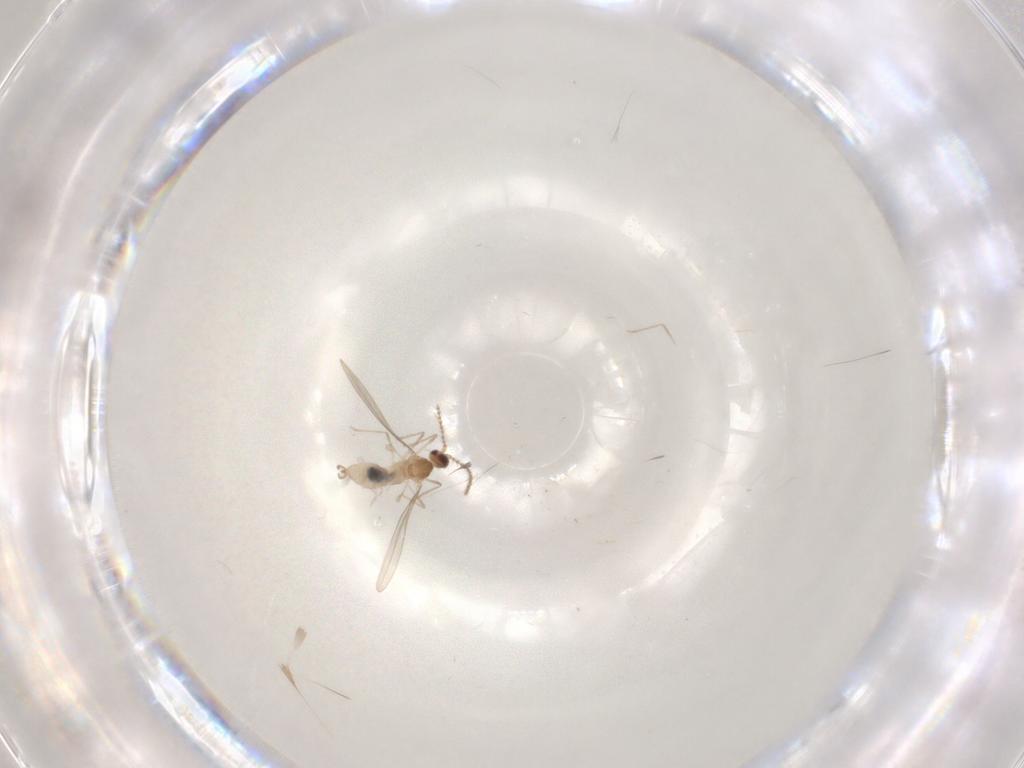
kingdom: Animalia
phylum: Arthropoda
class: Insecta
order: Diptera
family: Cecidomyiidae
